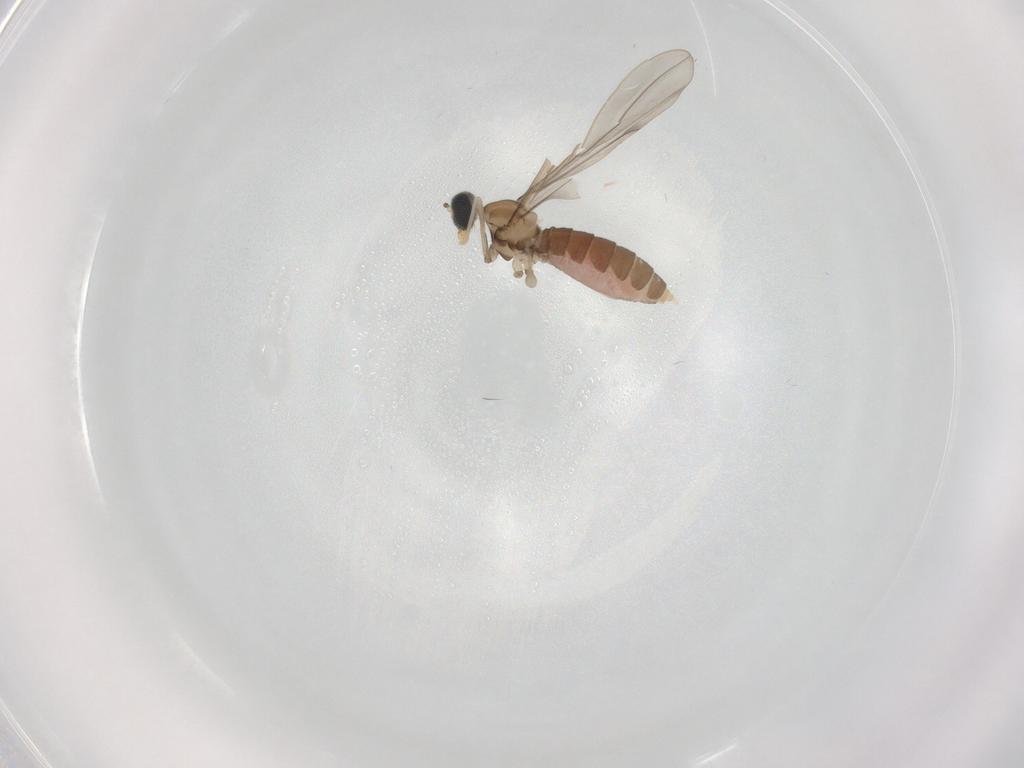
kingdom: Animalia
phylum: Arthropoda
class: Insecta
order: Diptera
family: Cecidomyiidae
